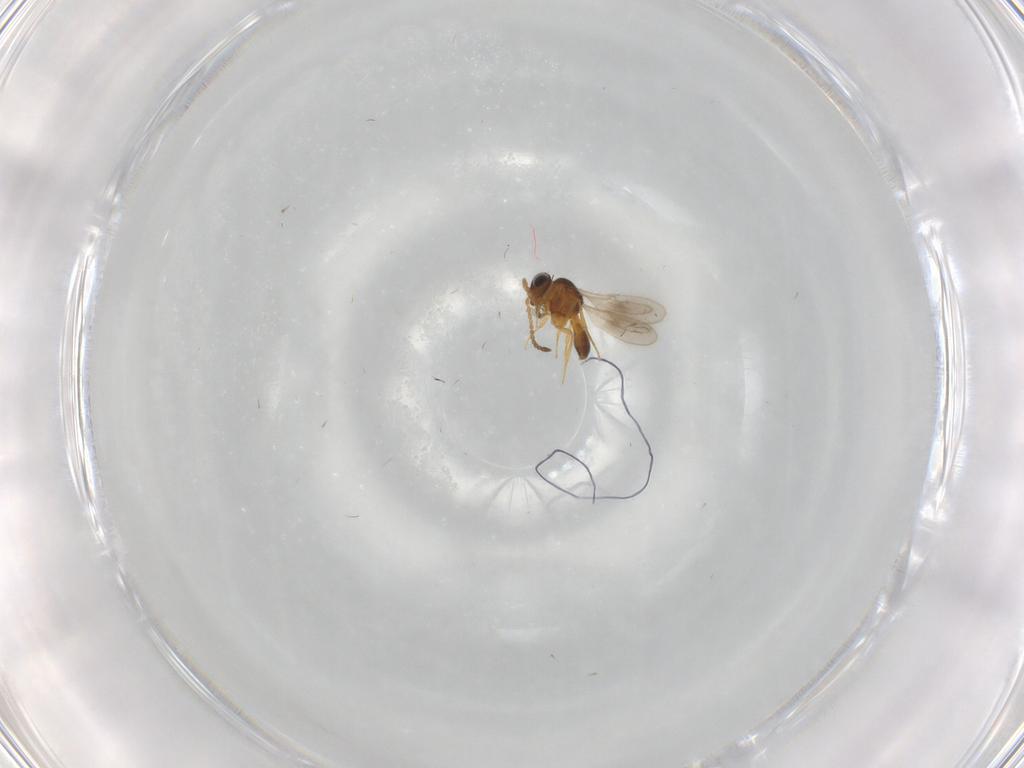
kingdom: Animalia
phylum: Arthropoda
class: Insecta
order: Hymenoptera
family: Scelionidae
